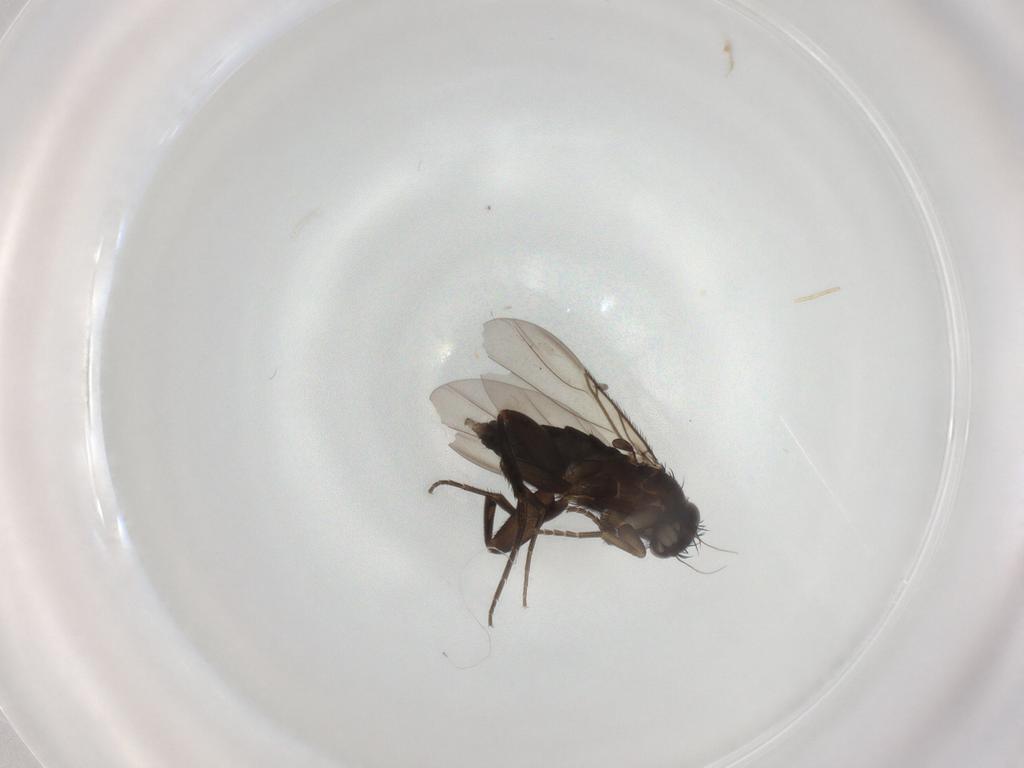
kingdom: Animalia
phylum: Arthropoda
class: Insecta
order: Diptera
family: Phoridae
